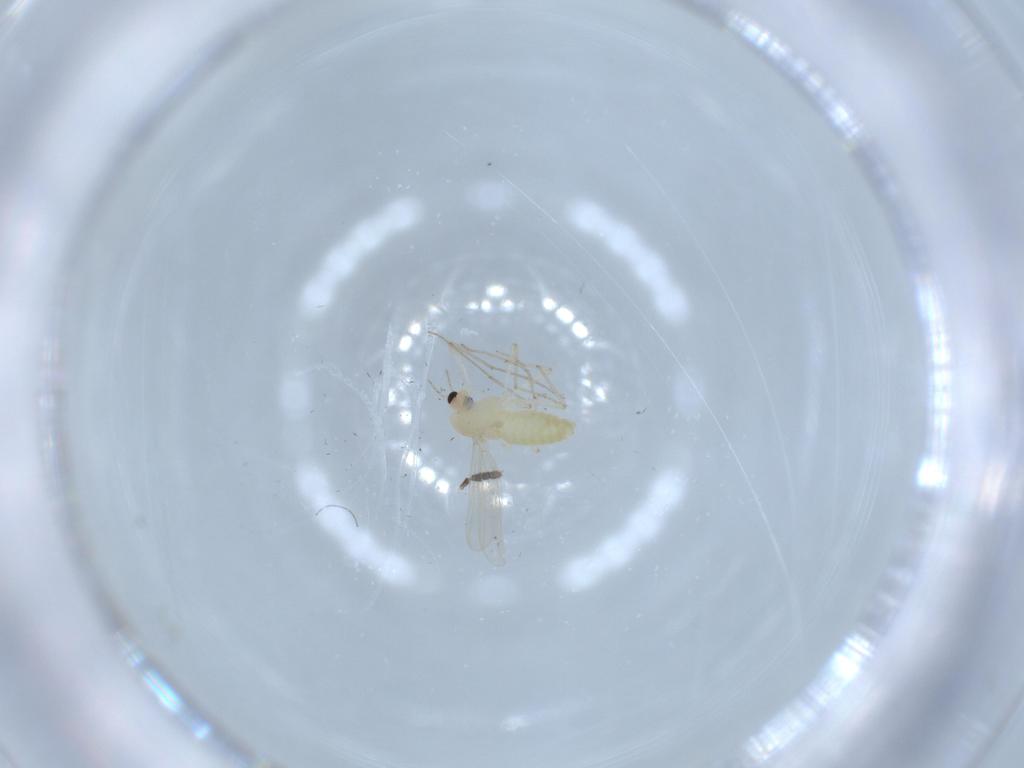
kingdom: Animalia
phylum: Arthropoda
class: Insecta
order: Diptera
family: Chironomidae
